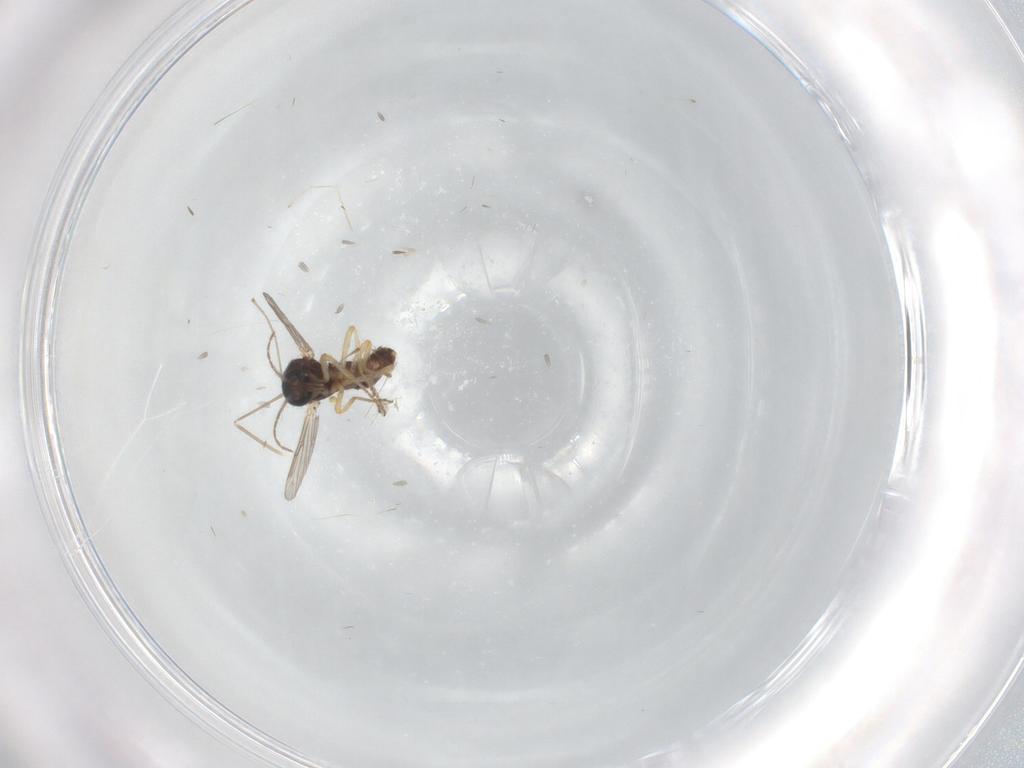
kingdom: Animalia
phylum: Arthropoda
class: Insecta
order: Diptera
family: Ceratopogonidae
